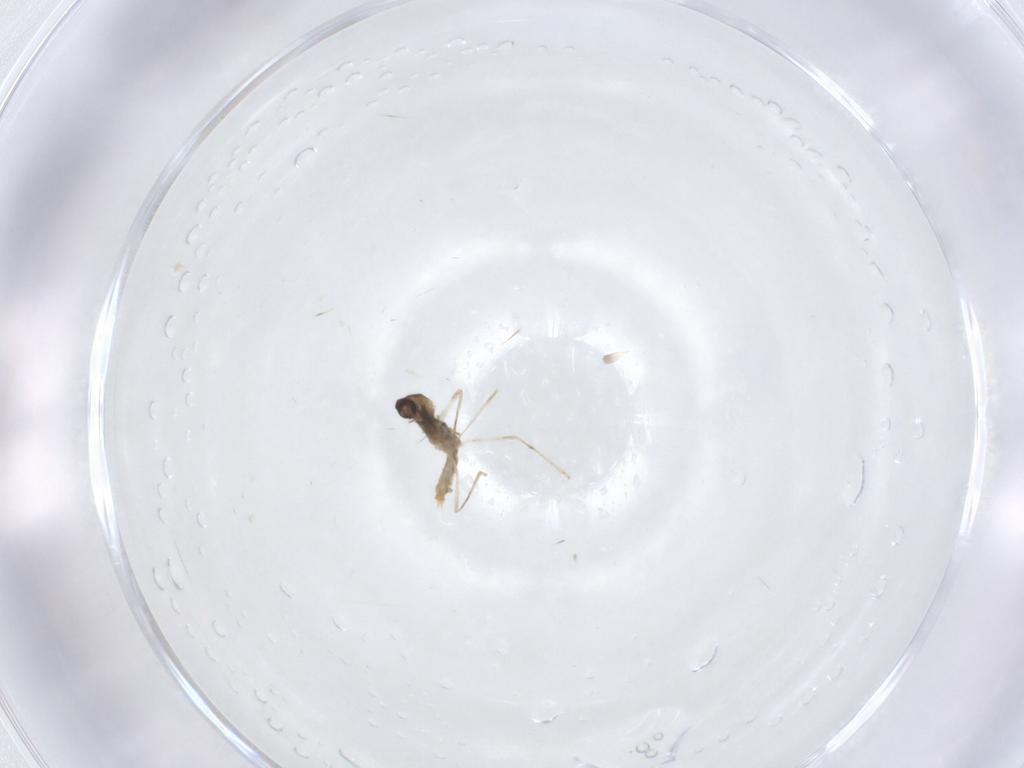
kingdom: Animalia
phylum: Arthropoda
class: Insecta
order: Diptera
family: Cecidomyiidae
